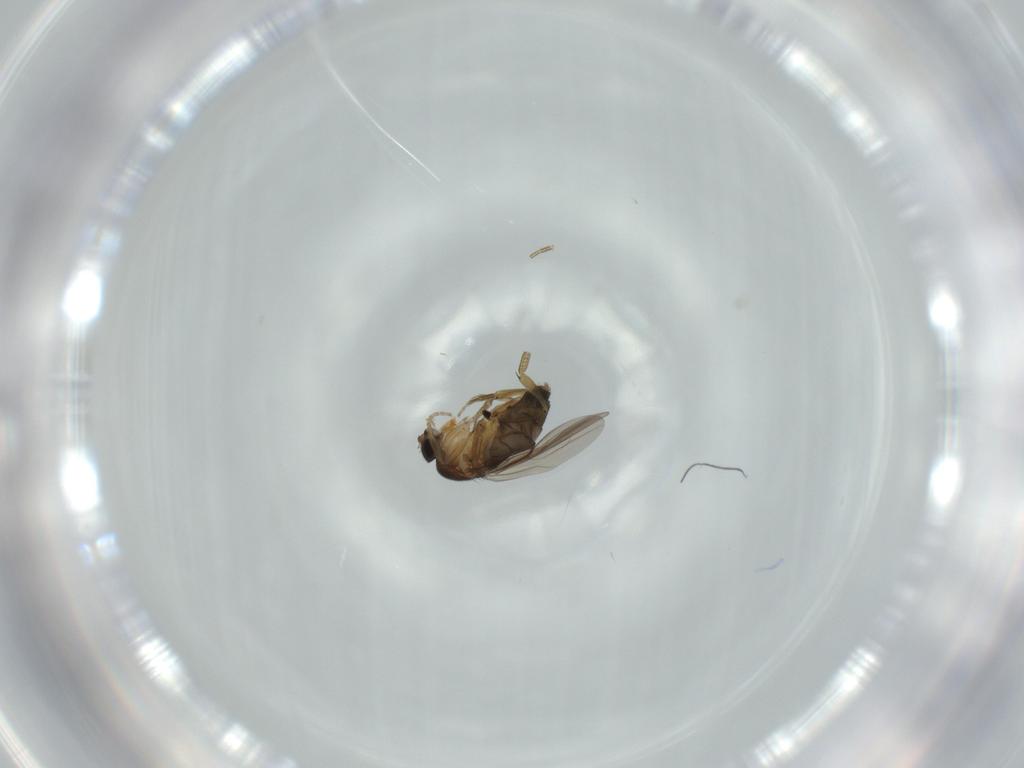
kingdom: Animalia
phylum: Arthropoda
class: Insecta
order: Diptera
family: Phoridae
